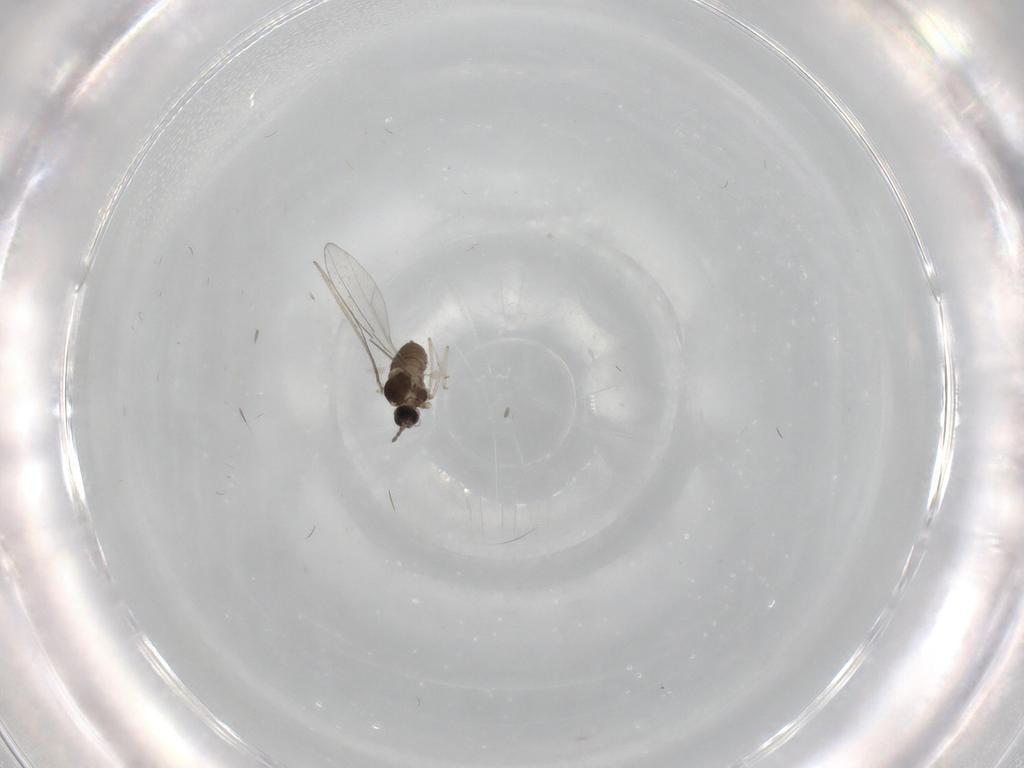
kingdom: Animalia
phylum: Arthropoda
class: Insecta
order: Diptera
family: Cecidomyiidae
